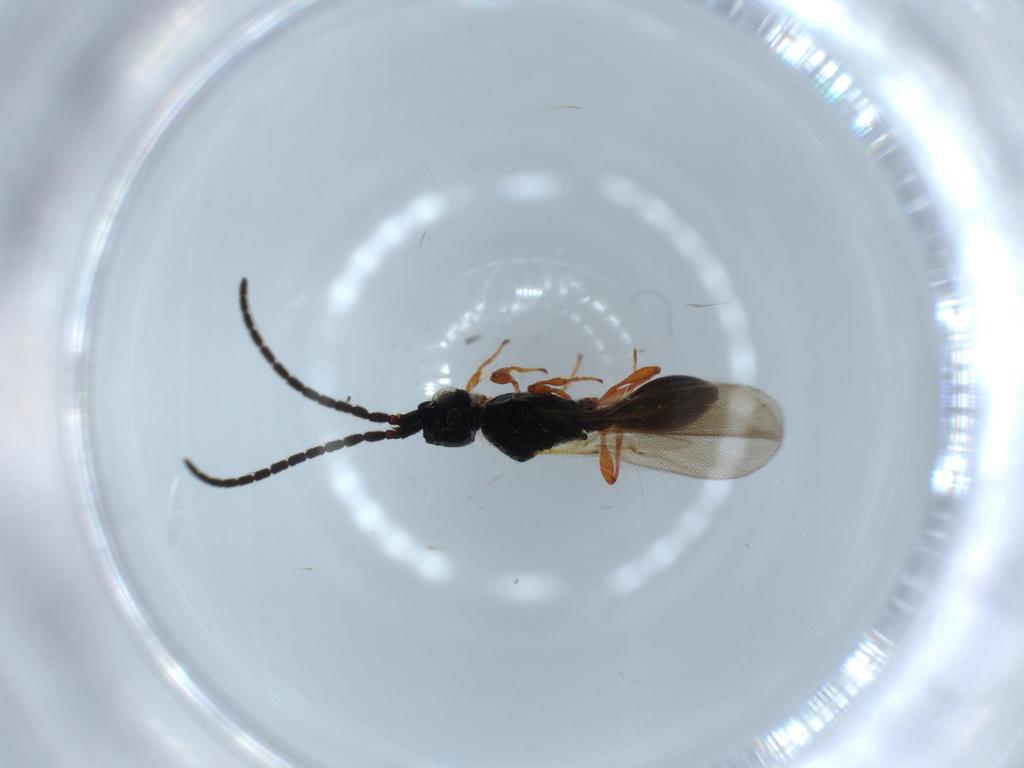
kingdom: Animalia
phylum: Arthropoda
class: Insecta
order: Hymenoptera
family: Diapriidae
